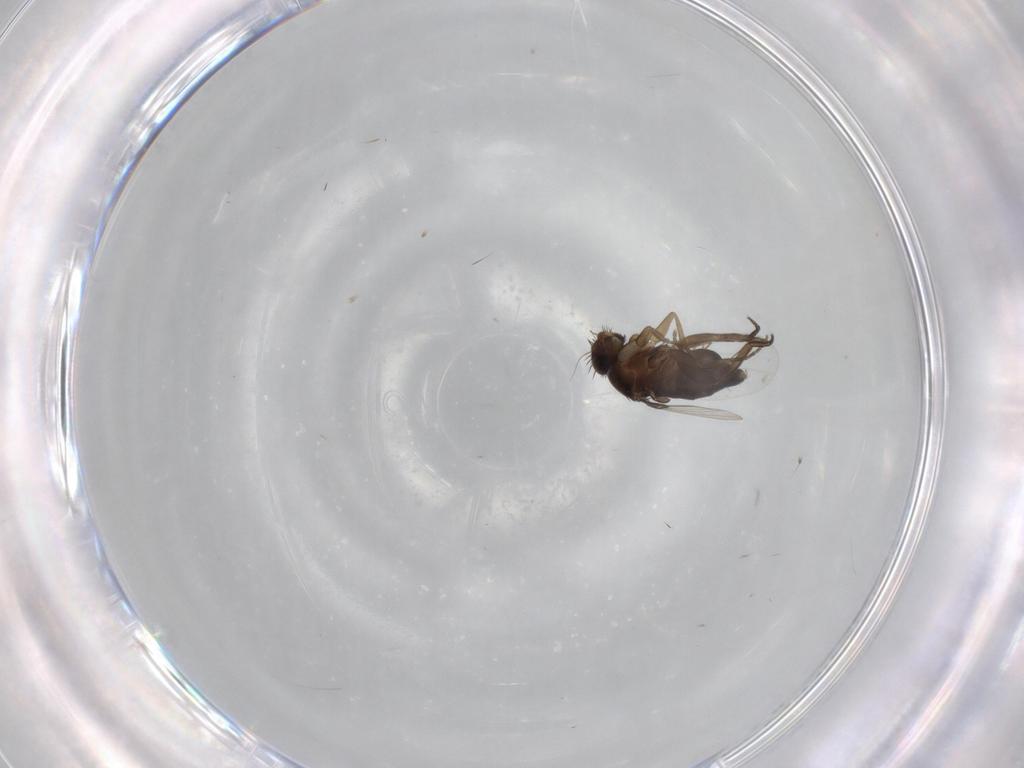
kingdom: Animalia
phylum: Arthropoda
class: Insecta
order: Diptera
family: Phoridae
